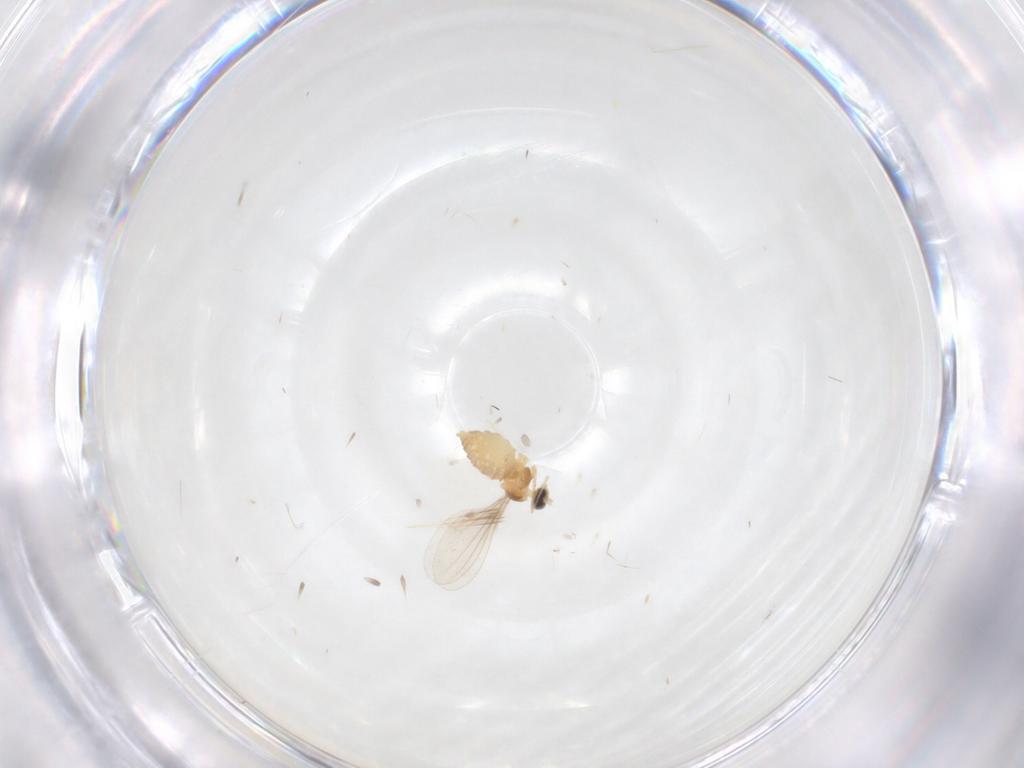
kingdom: Animalia
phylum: Arthropoda
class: Insecta
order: Diptera
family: Cecidomyiidae
